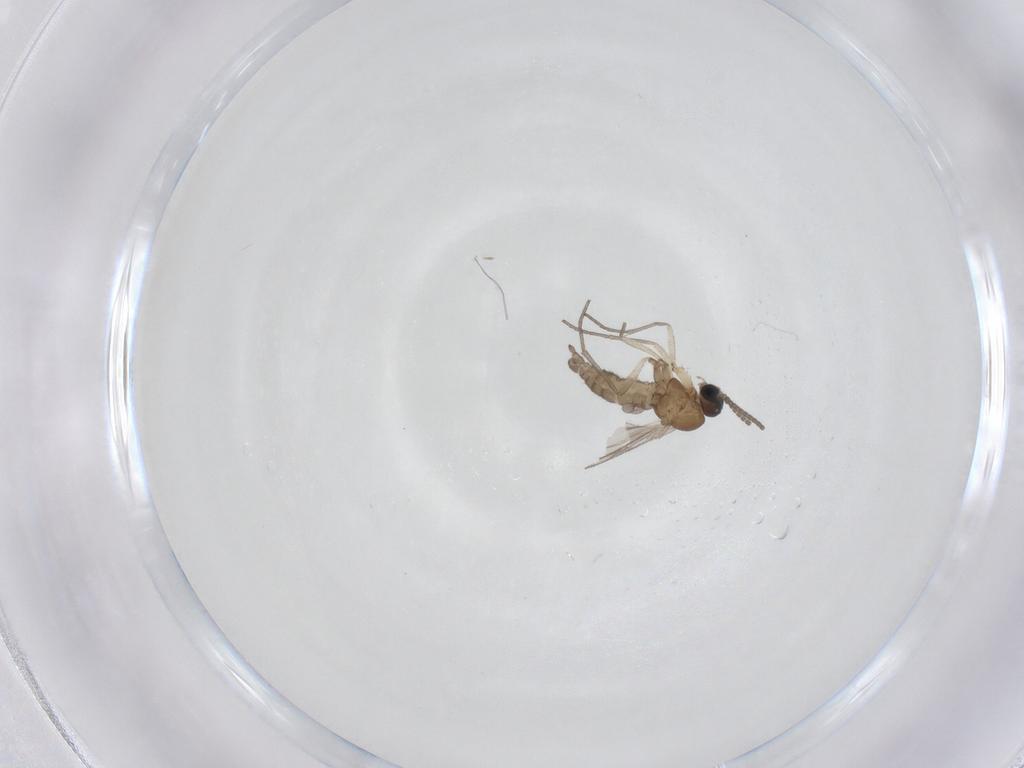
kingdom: Animalia
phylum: Arthropoda
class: Insecta
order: Diptera
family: Sciaridae
